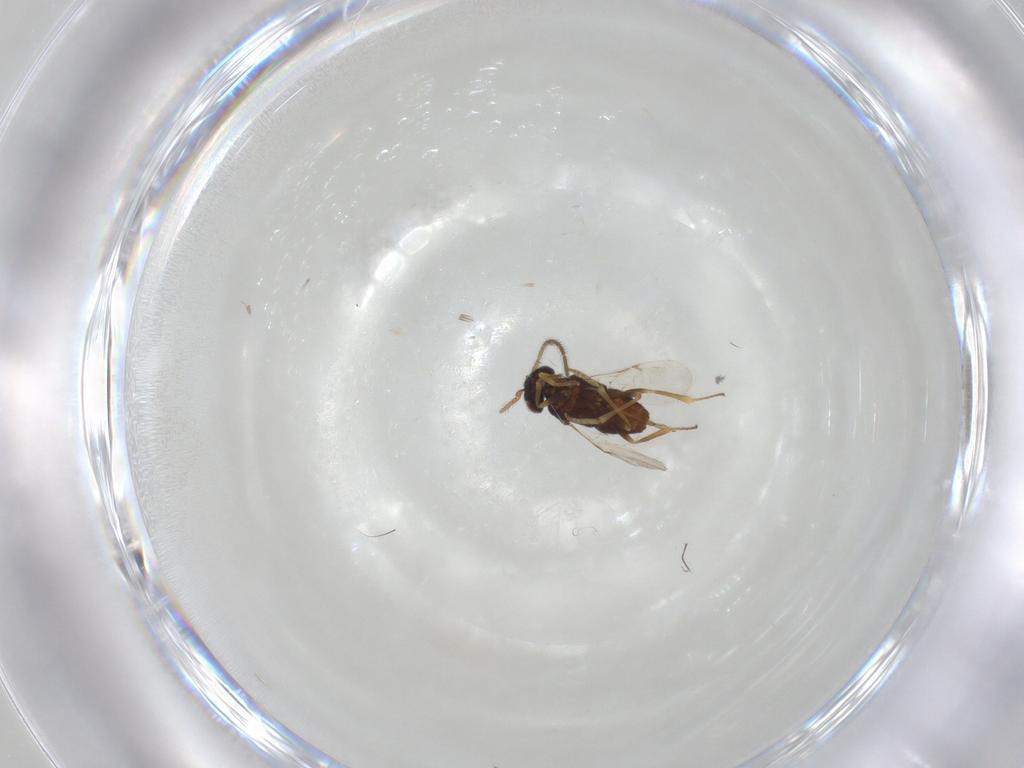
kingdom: Animalia
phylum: Arthropoda
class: Insecta
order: Hymenoptera
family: Encyrtidae
